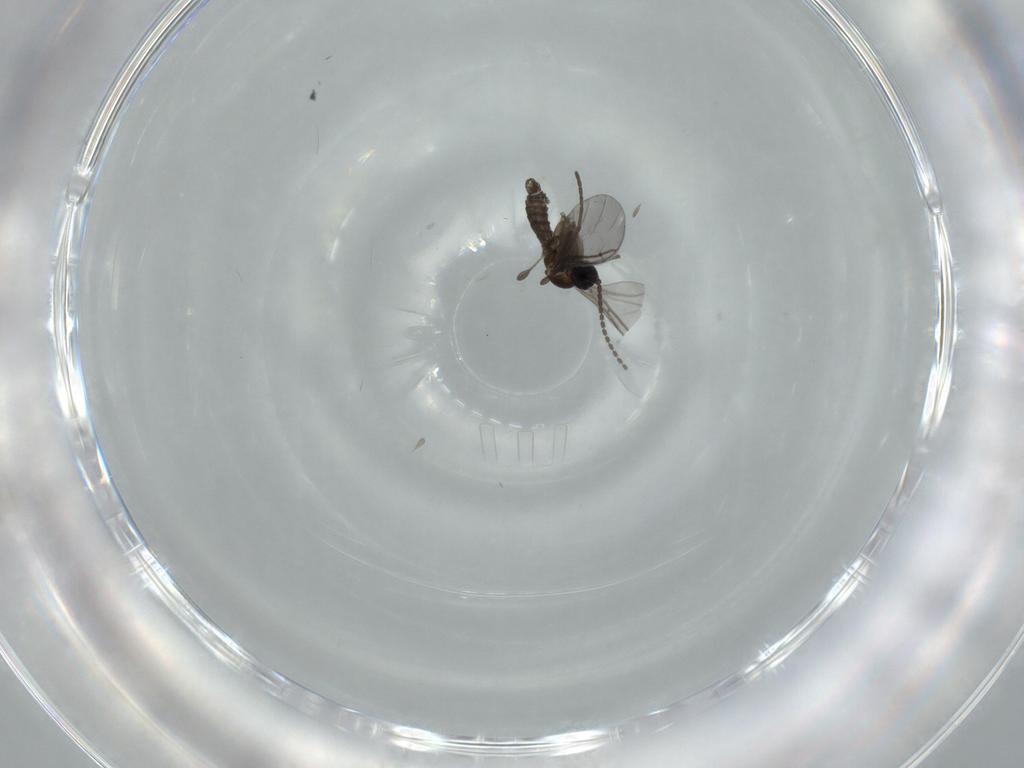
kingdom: Animalia
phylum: Arthropoda
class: Insecta
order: Diptera
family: Sciaridae
